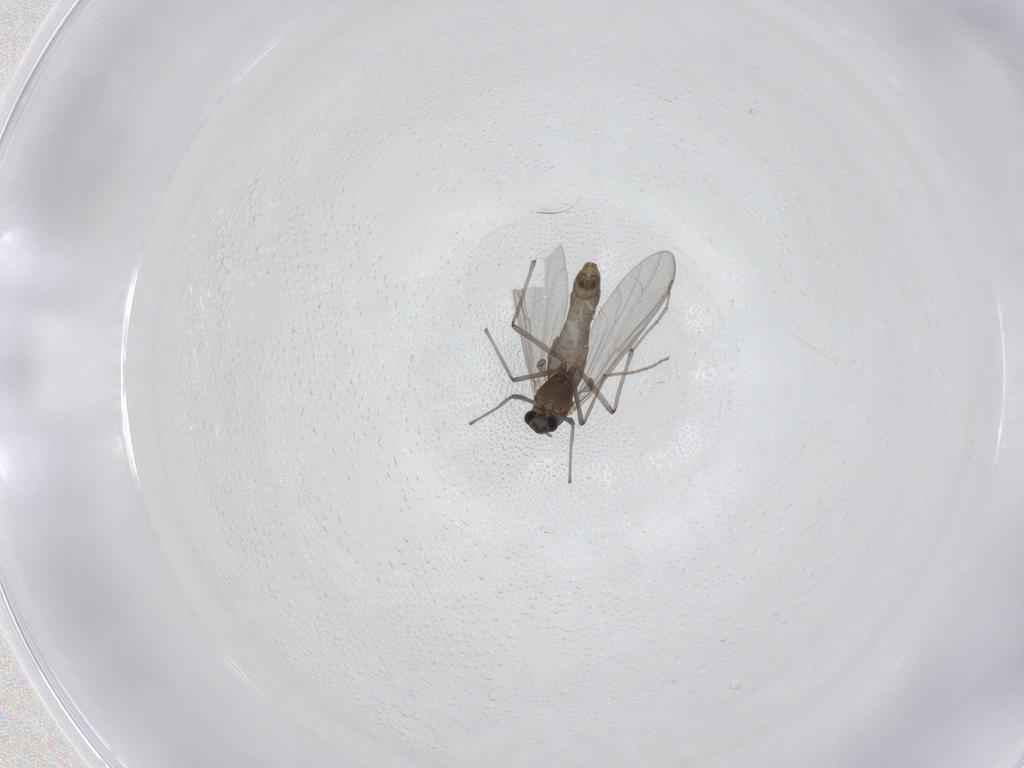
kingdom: Animalia
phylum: Arthropoda
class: Insecta
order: Diptera
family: Chironomidae
